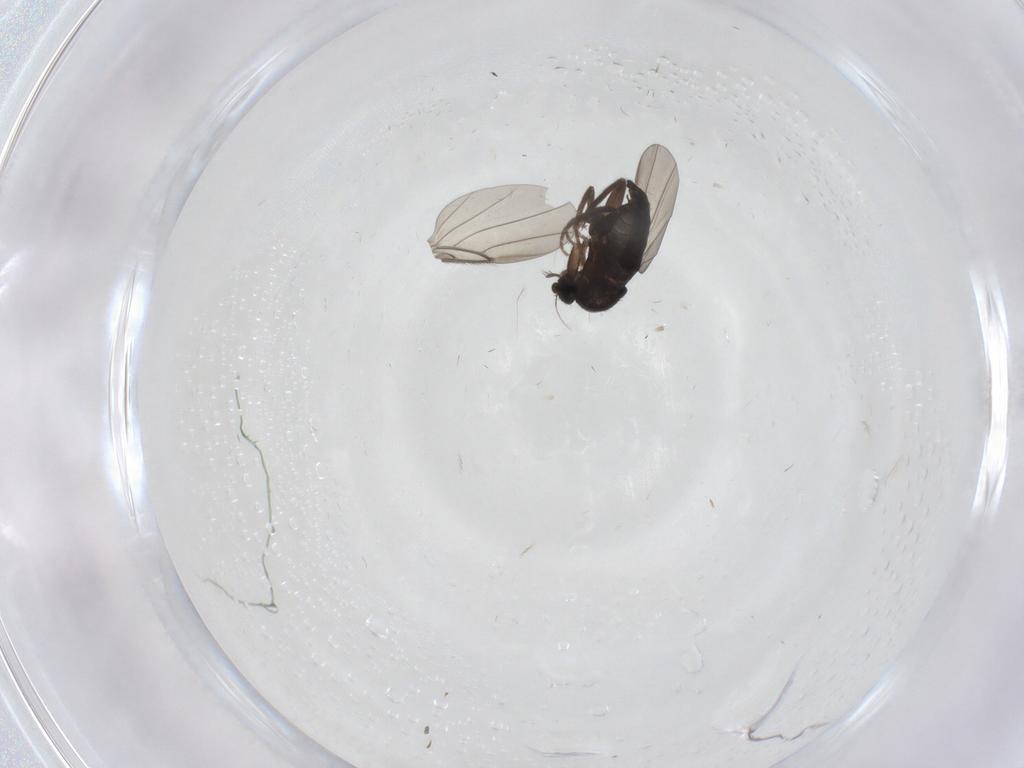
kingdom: Animalia
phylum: Arthropoda
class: Insecta
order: Diptera
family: Phoridae
